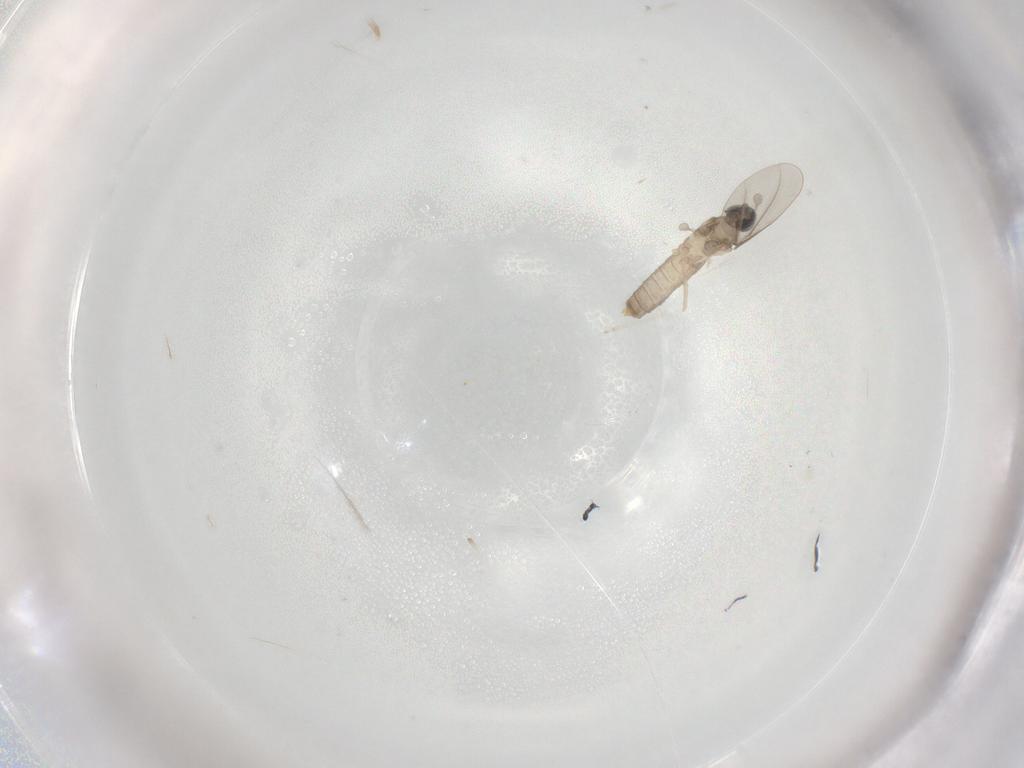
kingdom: Animalia
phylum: Arthropoda
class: Insecta
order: Diptera
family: Cecidomyiidae
